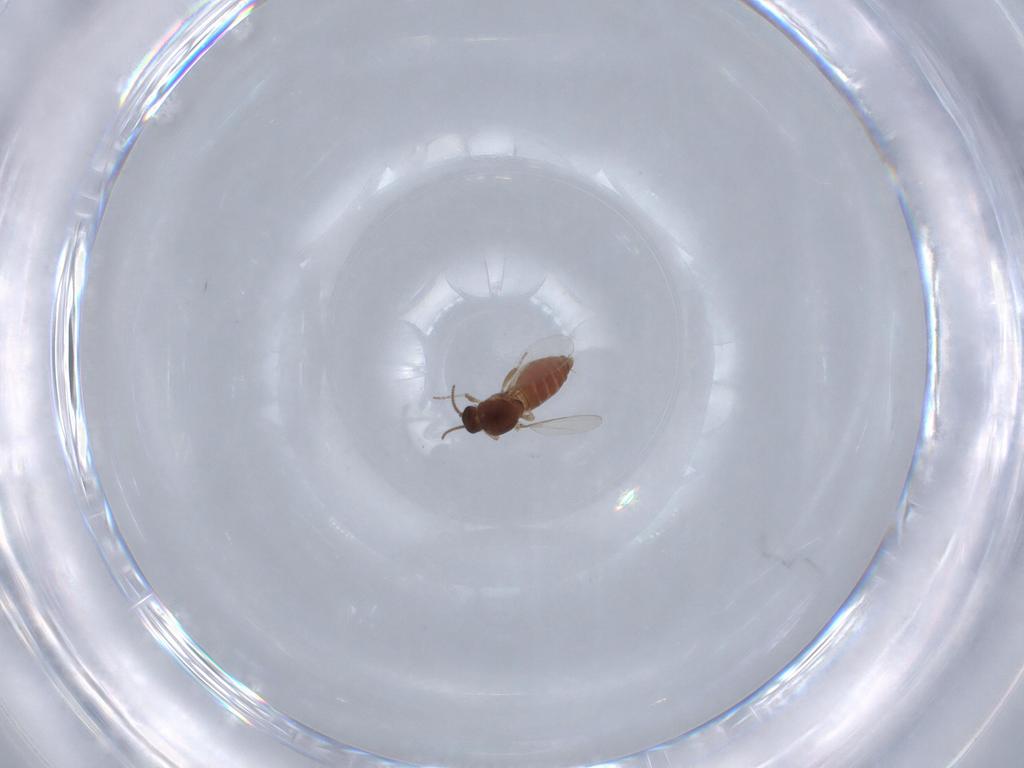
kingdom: Animalia
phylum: Arthropoda
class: Insecta
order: Diptera
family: Ceratopogonidae
